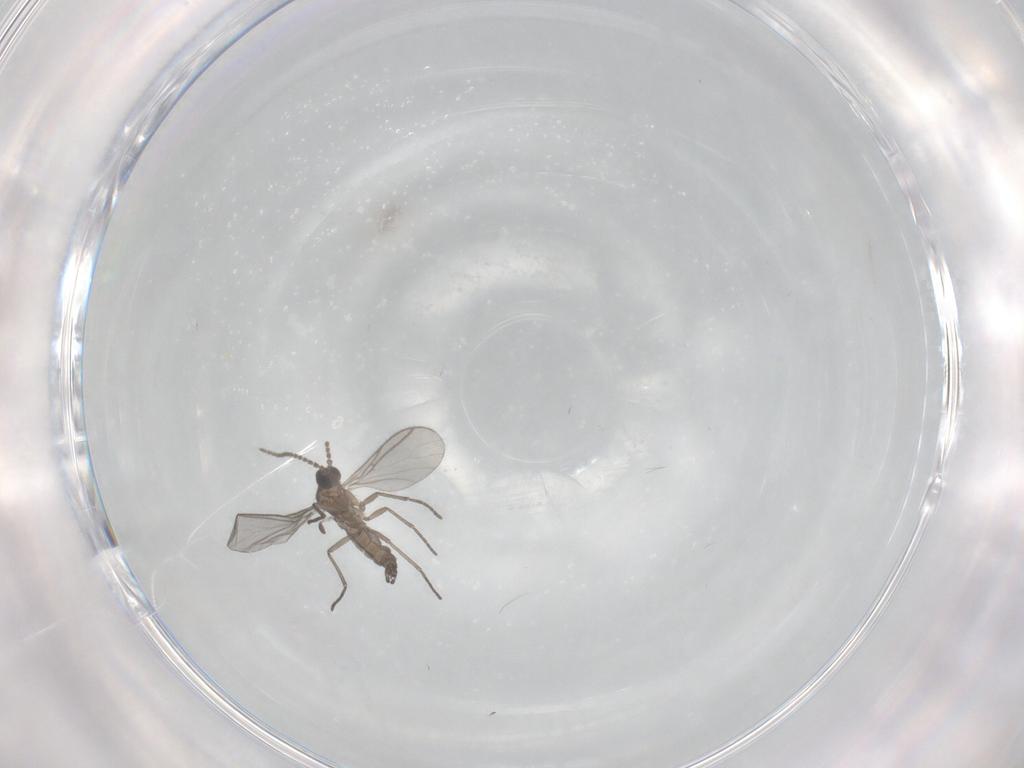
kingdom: Animalia
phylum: Arthropoda
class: Insecta
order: Diptera
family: Sciaridae
